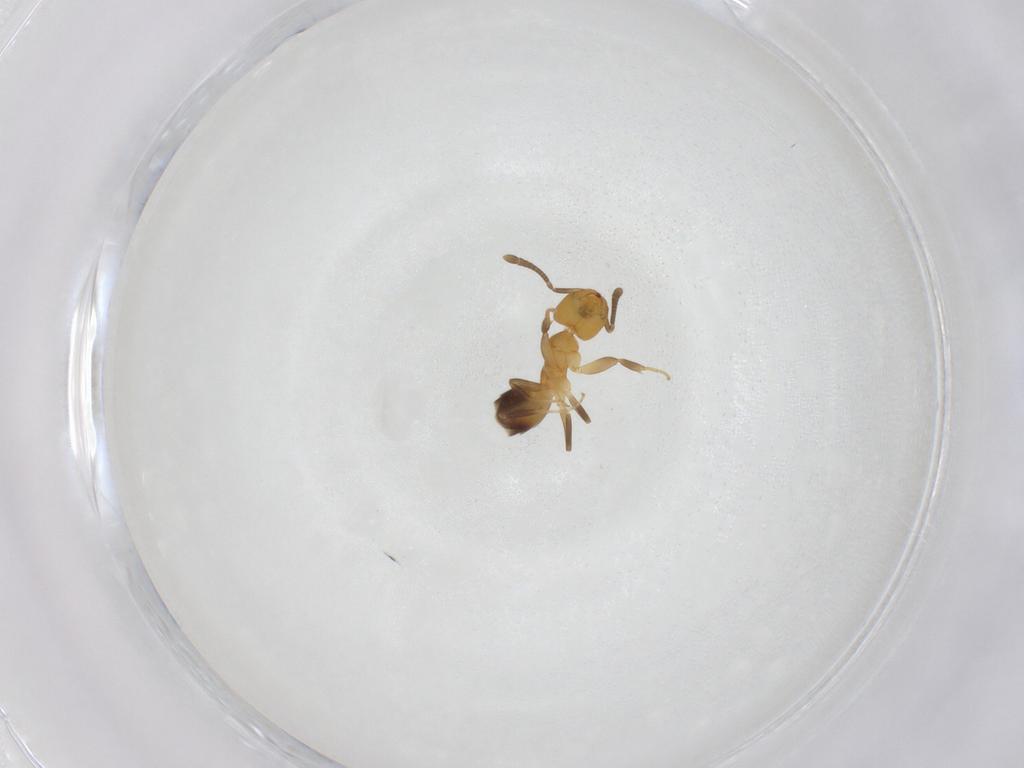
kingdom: Animalia
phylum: Arthropoda
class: Insecta
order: Hymenoptera
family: Formicidae
